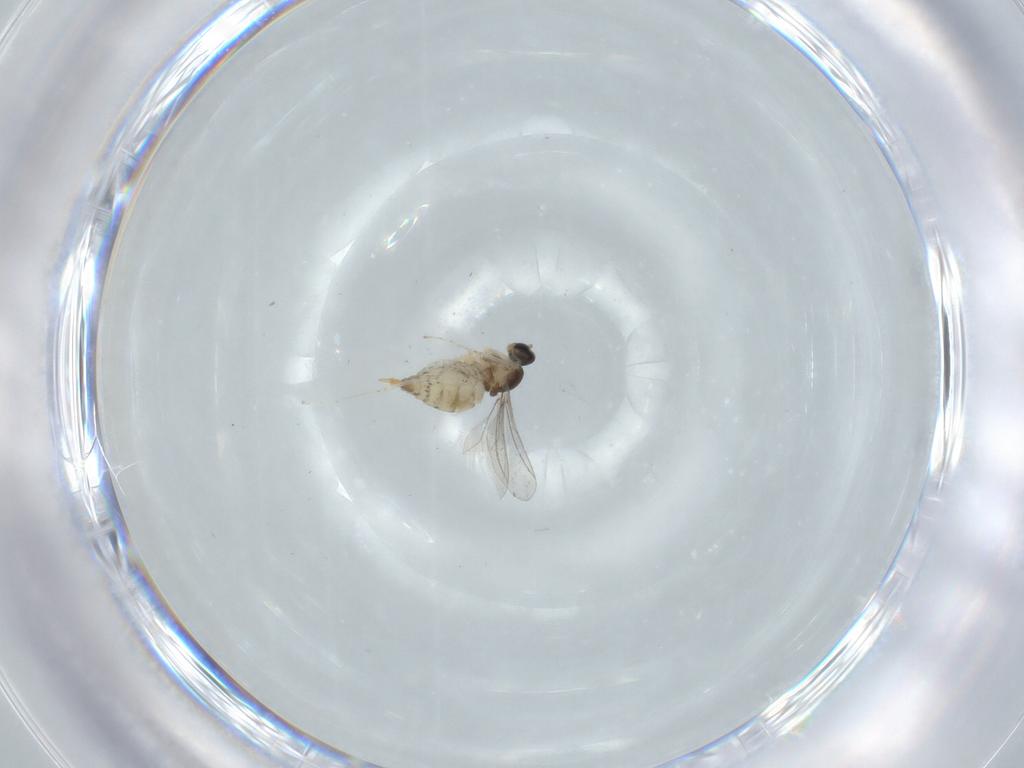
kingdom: Animalia
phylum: Arthropoda
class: Insecta
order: Diptera
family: Cecidomyiidae
